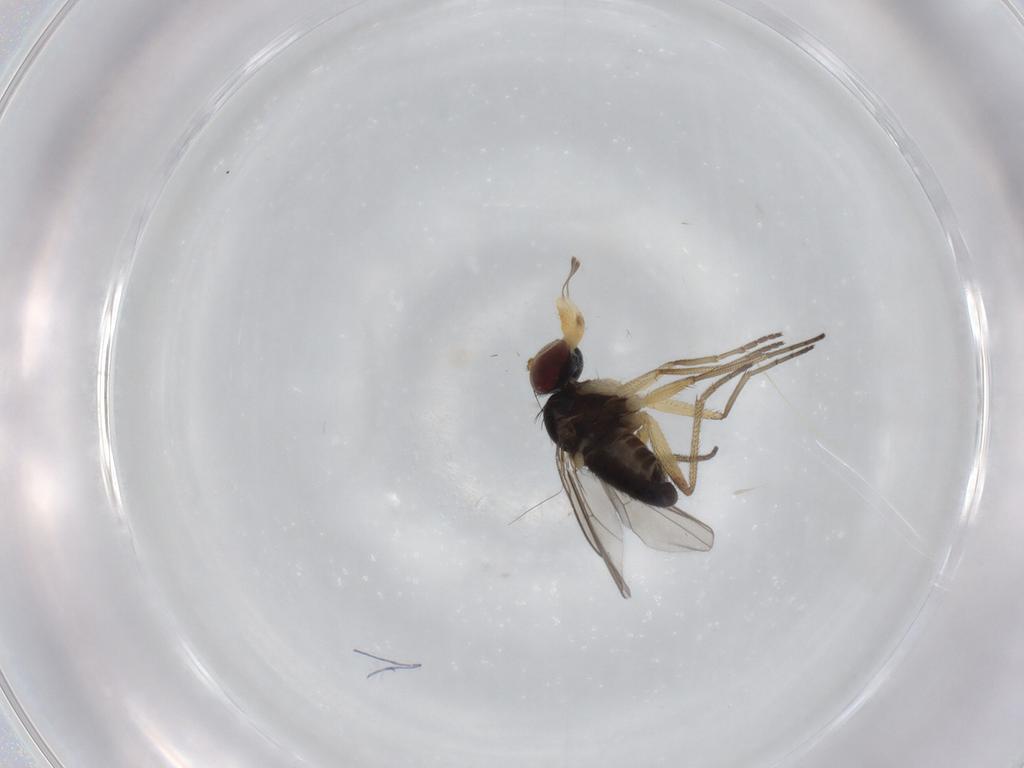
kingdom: Animalia
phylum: Arthropoda
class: Insecta
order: Diptera
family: Dolichopodidae
